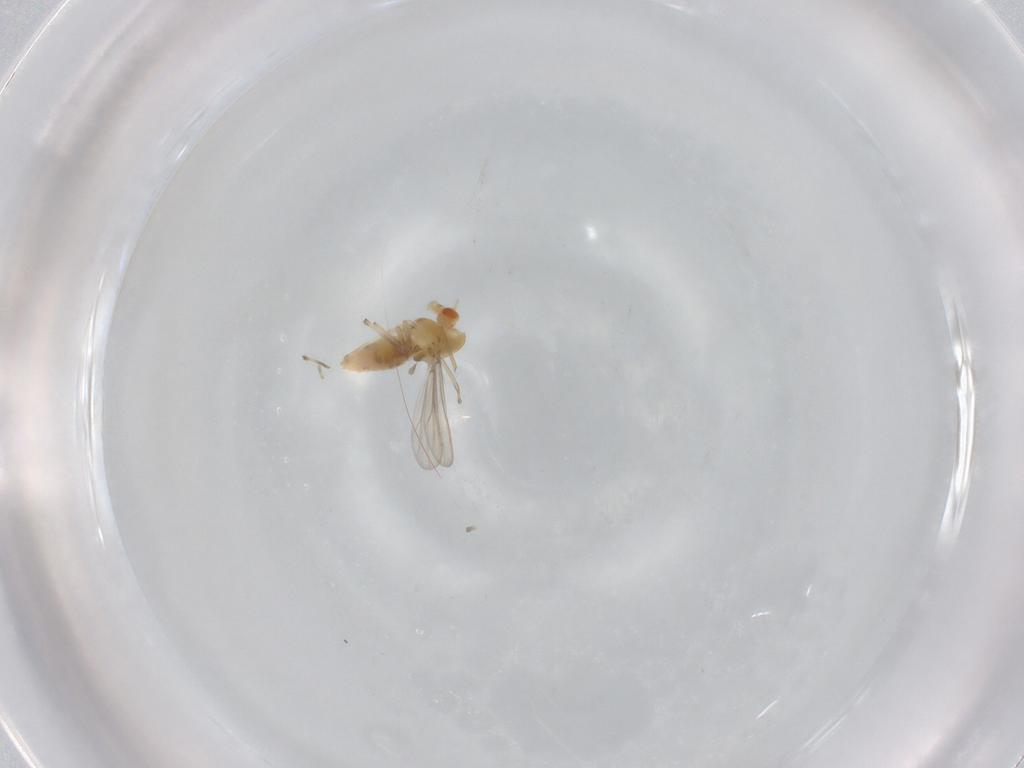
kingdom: Animalia
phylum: Arthropoda
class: Insecta
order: Diptera
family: Chironomidae
